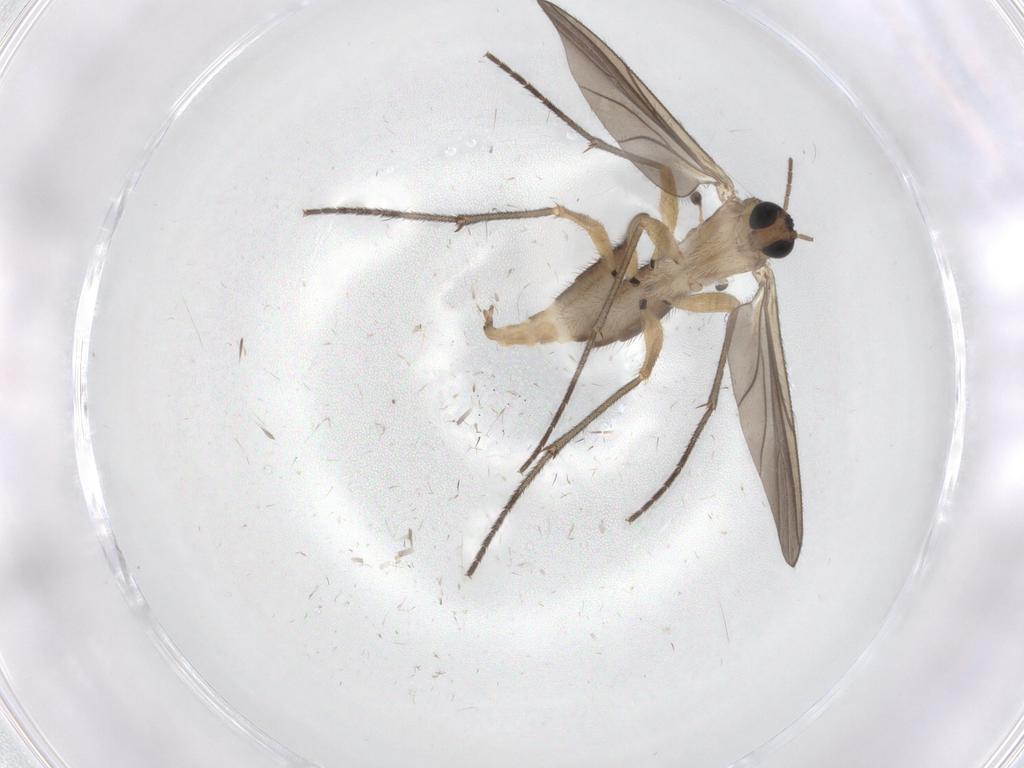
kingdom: Animalia
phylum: Arthropoda
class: Insecta
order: Diptera
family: Sciaridae
